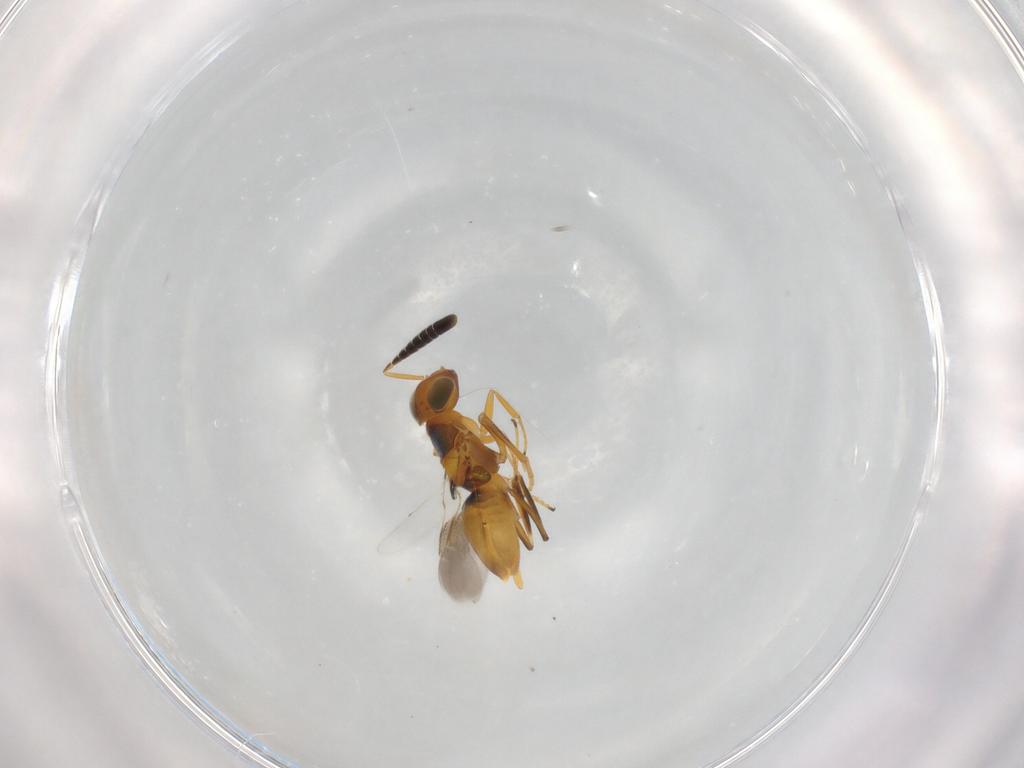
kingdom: Animalia
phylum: Arthropoda
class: Insecta
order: Hymenoptera
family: Encyrtidae
